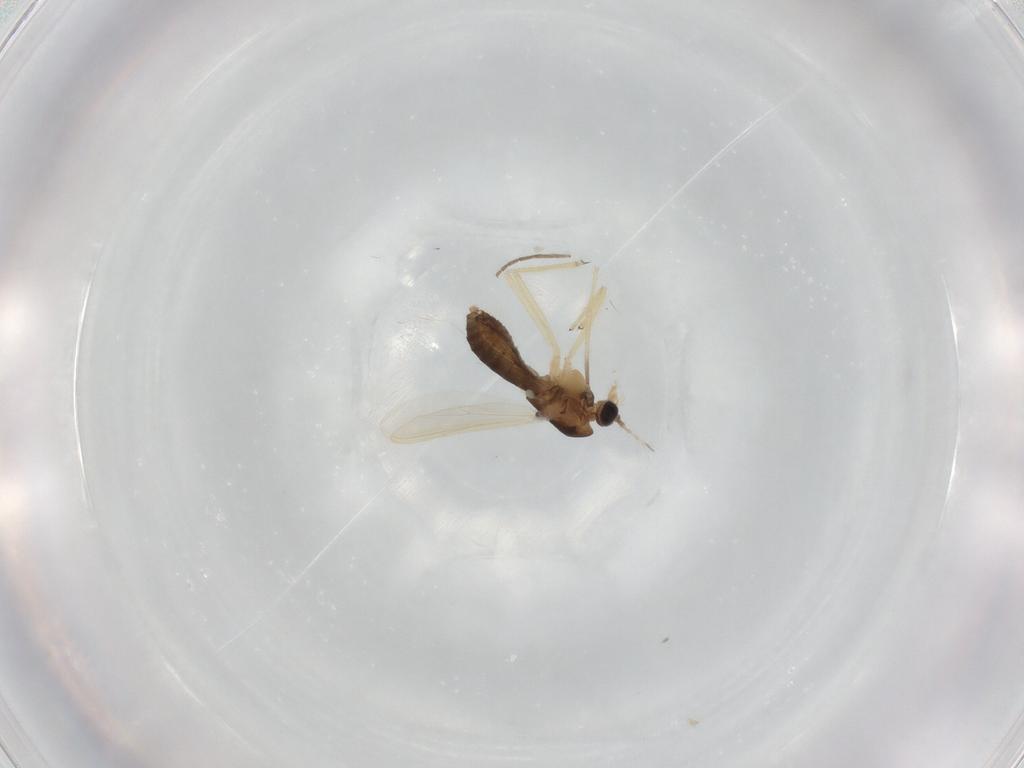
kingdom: Animalia
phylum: Arthropoda
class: Insecta
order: Diptera
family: Chironomidae
